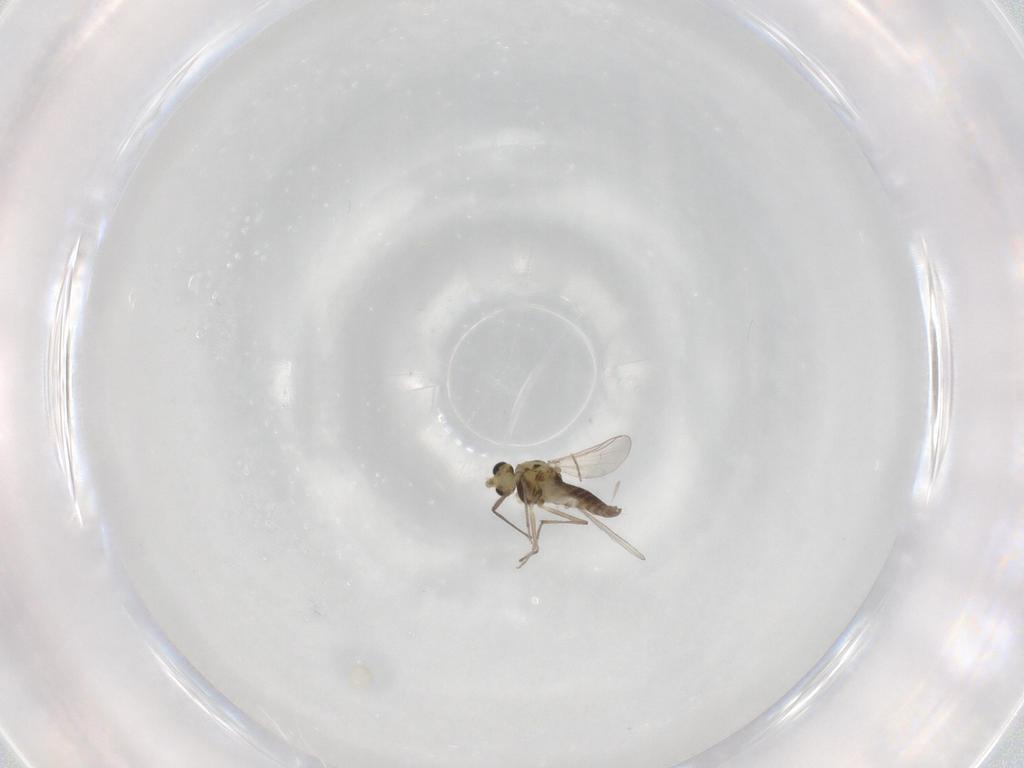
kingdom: Animalia
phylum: Arthropoda
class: Insecta
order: Diptera
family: Chironomidae
